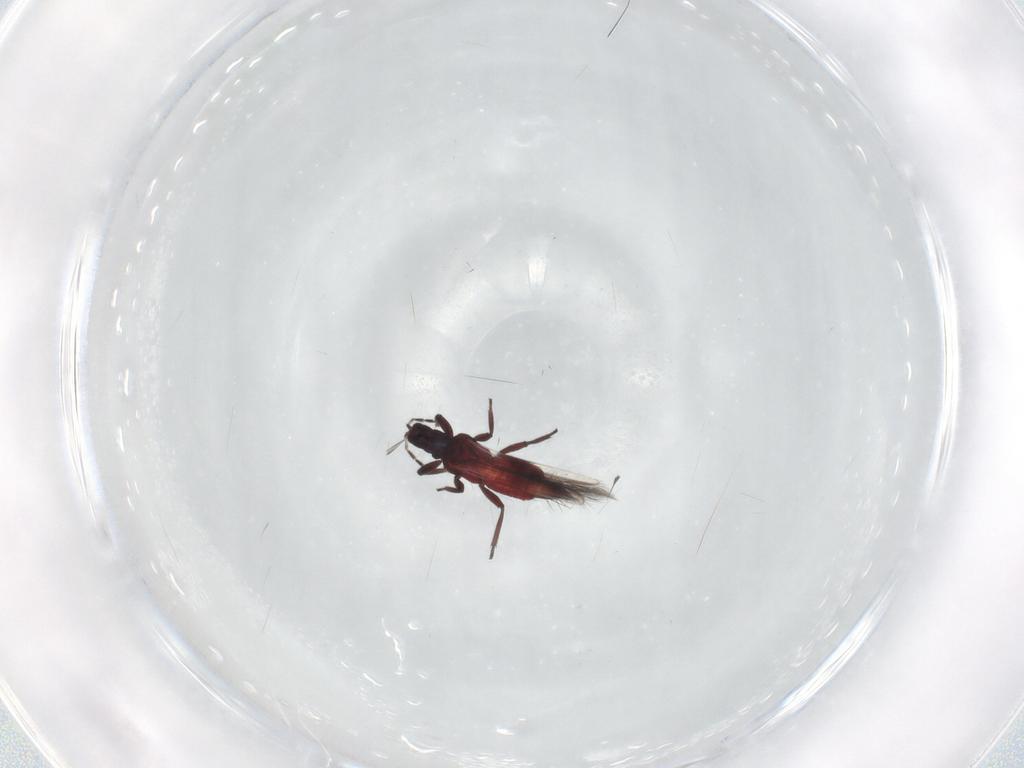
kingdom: Animalia
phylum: Arthropoda
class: Insecta
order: Thysanoptera
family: Aeolothripidae
